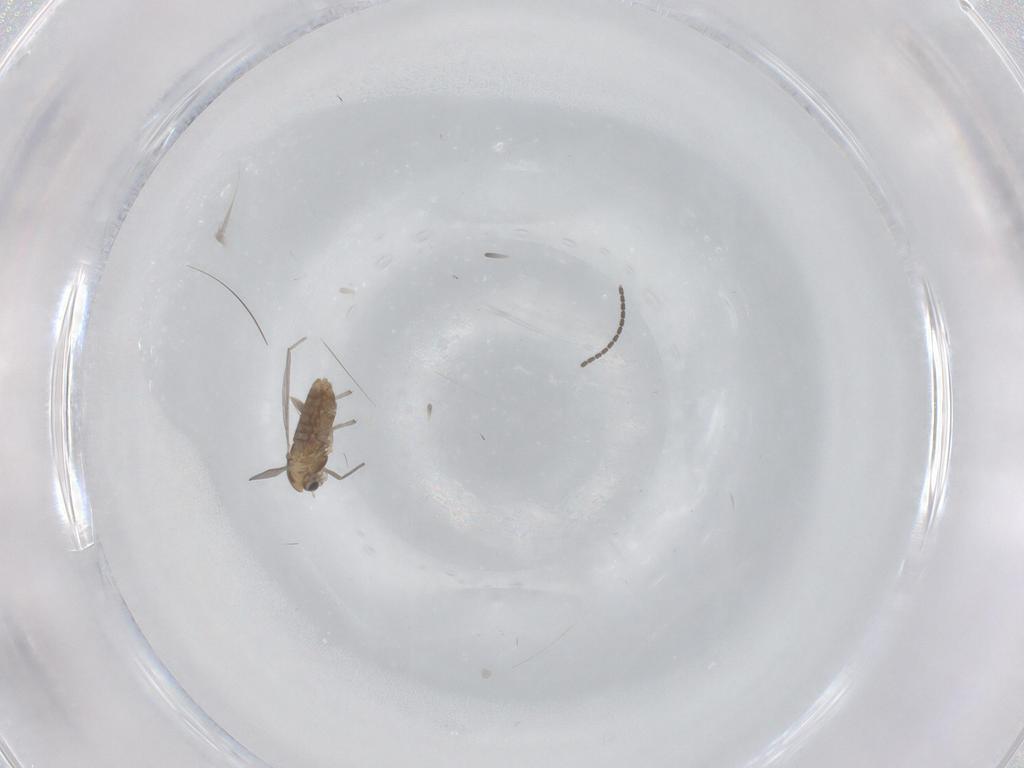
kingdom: Animalia
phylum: Arthropoda
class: Insecta
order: Diptera
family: Chironomidae
